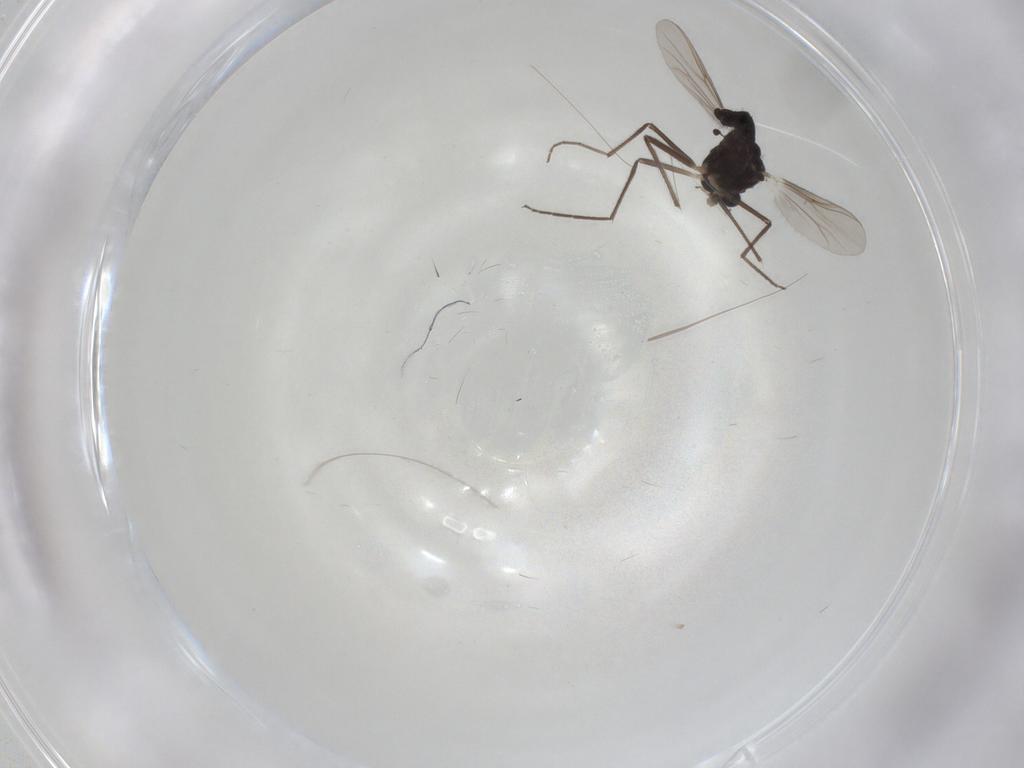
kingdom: Animalia
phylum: Arthropoda
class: Insecta
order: Diptera
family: Chironomidae
